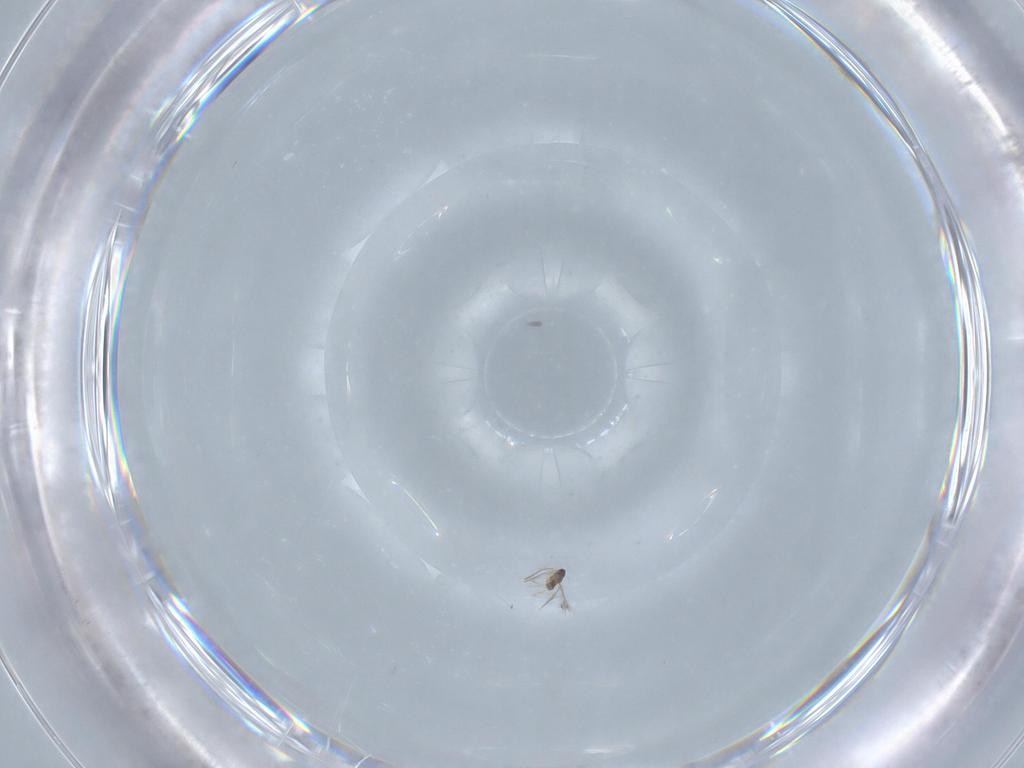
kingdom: Animalia
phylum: Arthropoda
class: Insecta
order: Hymenoptera
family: Mymaridae
